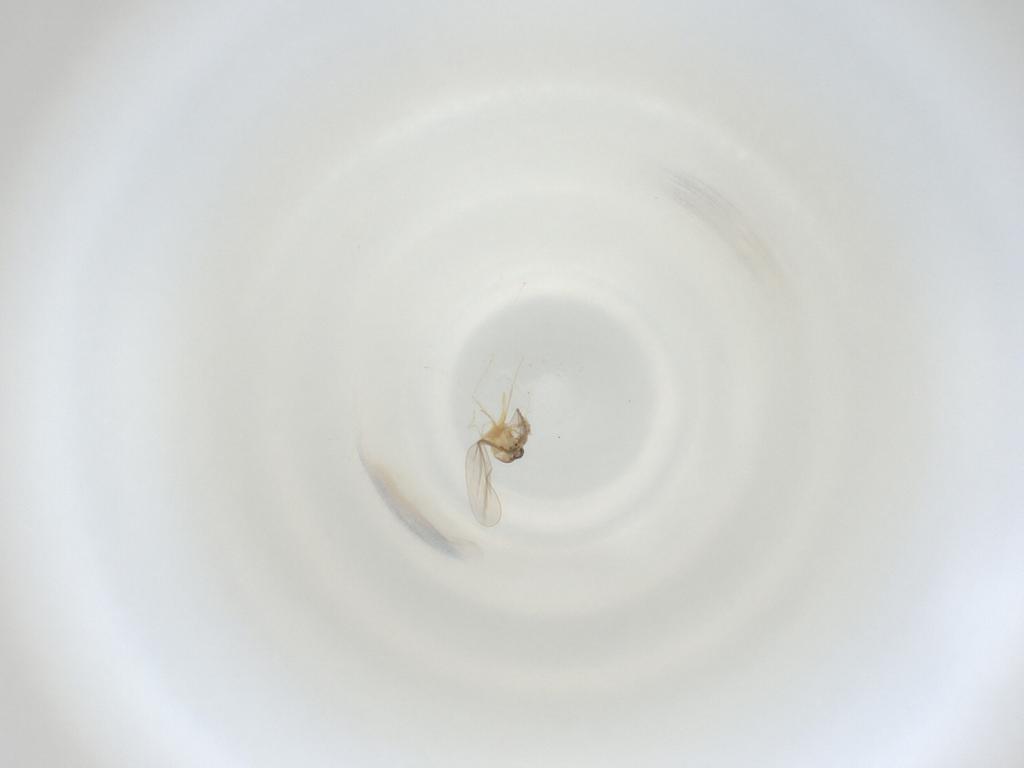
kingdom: Animalia
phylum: Arthropoda
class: Insecta
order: Diptera
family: Cecidomyiidae
